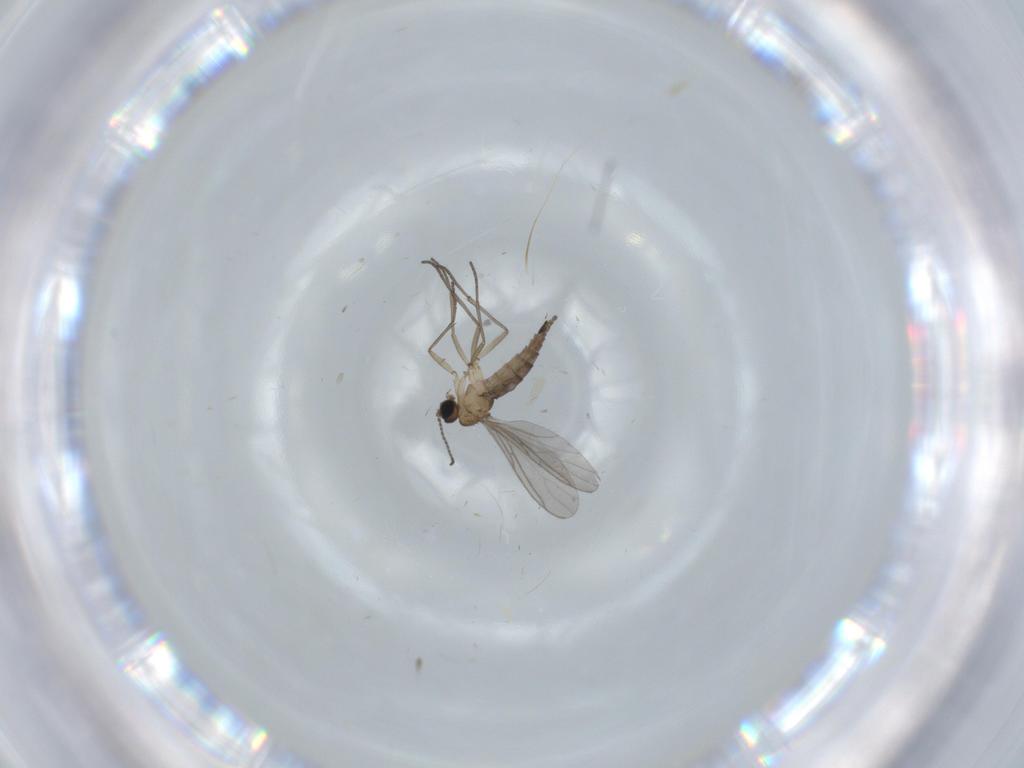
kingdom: Animalia
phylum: Arthropoda
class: Insecta
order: Diptera
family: Sciaridae
